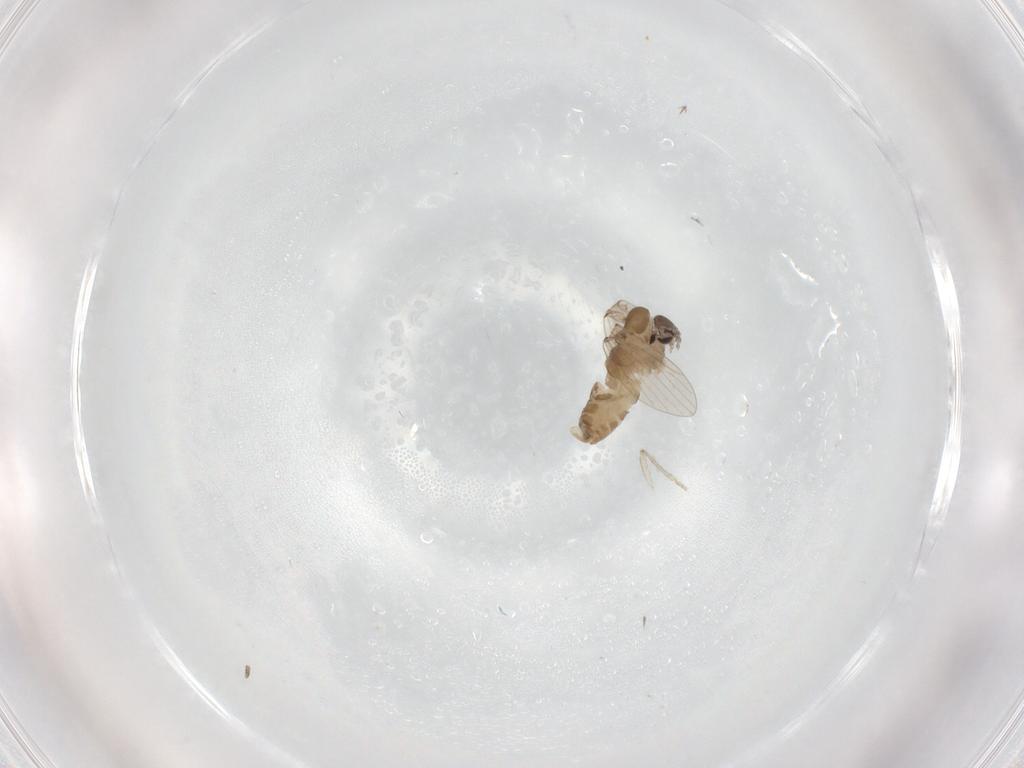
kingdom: Animalia
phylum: Arthropoda
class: Insecta
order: Diptera
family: Psychodidae
